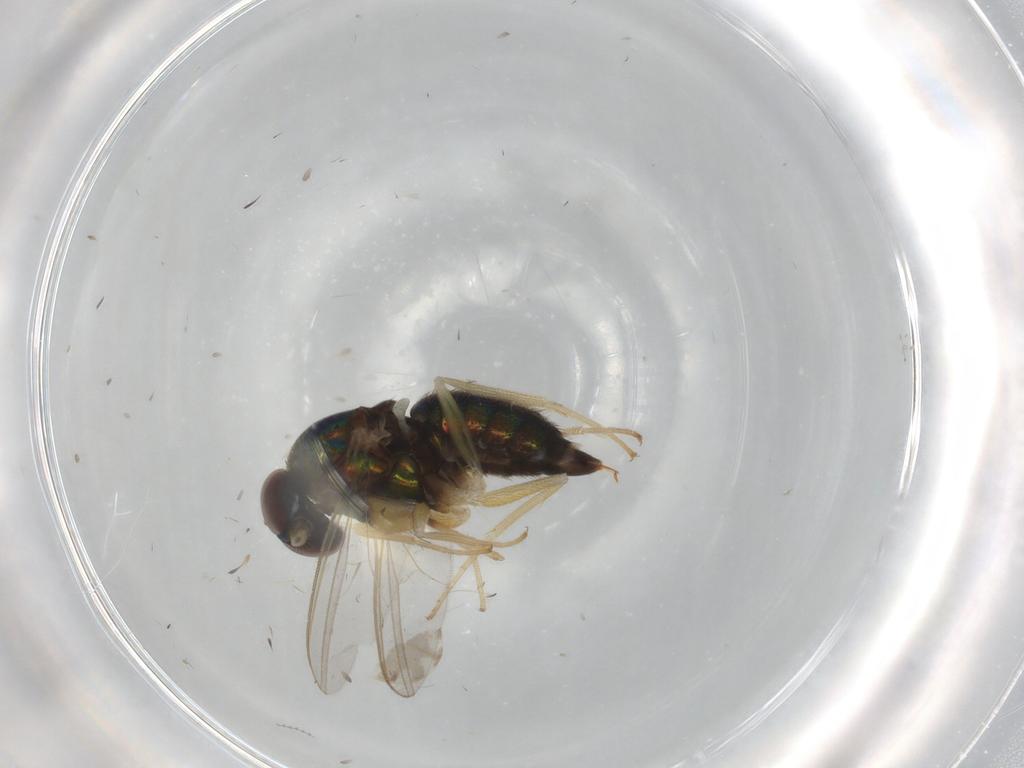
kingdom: Animalia
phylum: Arthropoda
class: Insecta
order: Diptera
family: Dolichopodidae
